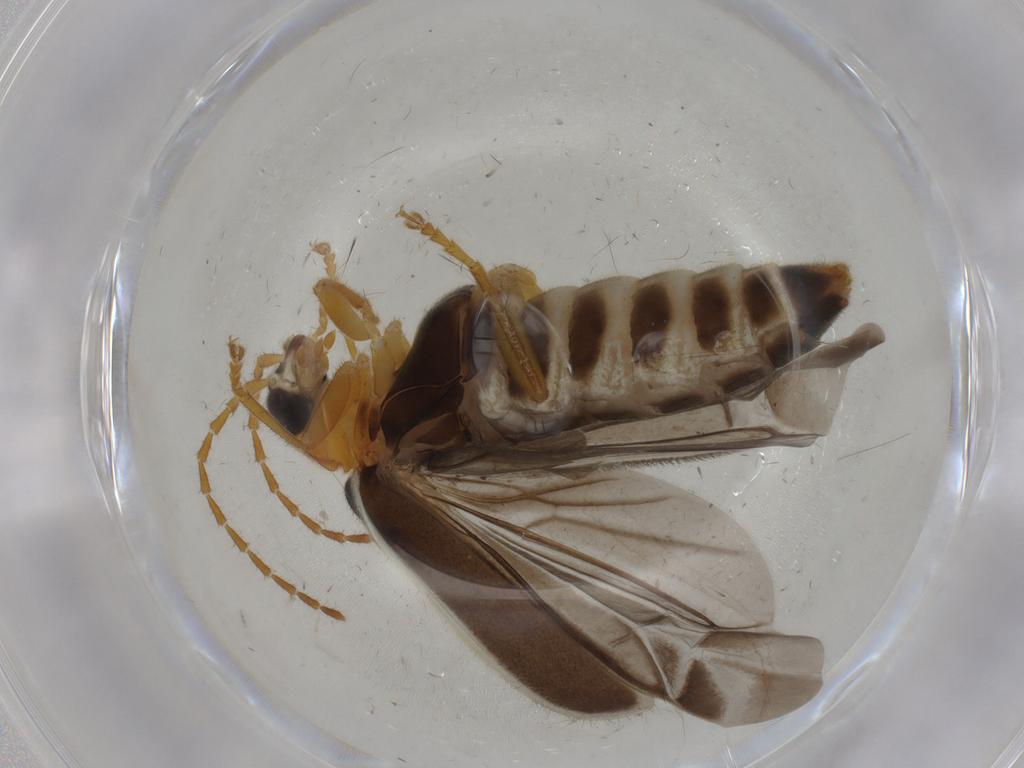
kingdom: Animalia
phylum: Arthropoda
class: Insecta
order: Coleoptera
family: Cantharidae
